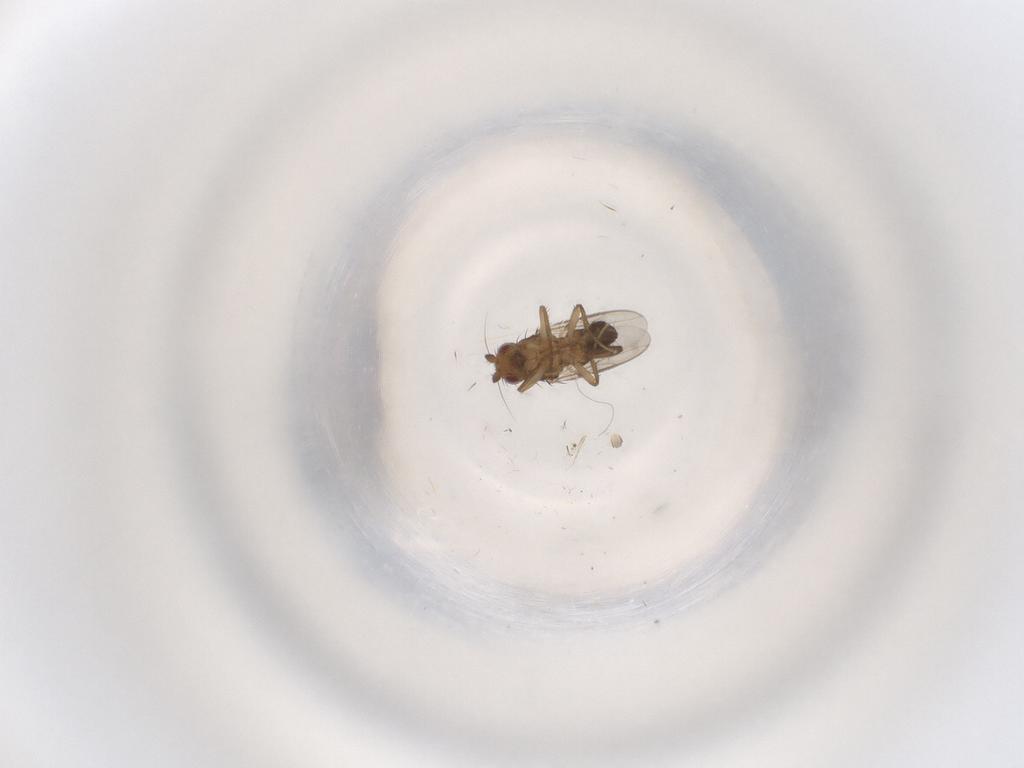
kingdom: Animalia
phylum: Arthropoda
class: Insecta
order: Diptera
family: Sphaeroceridae
